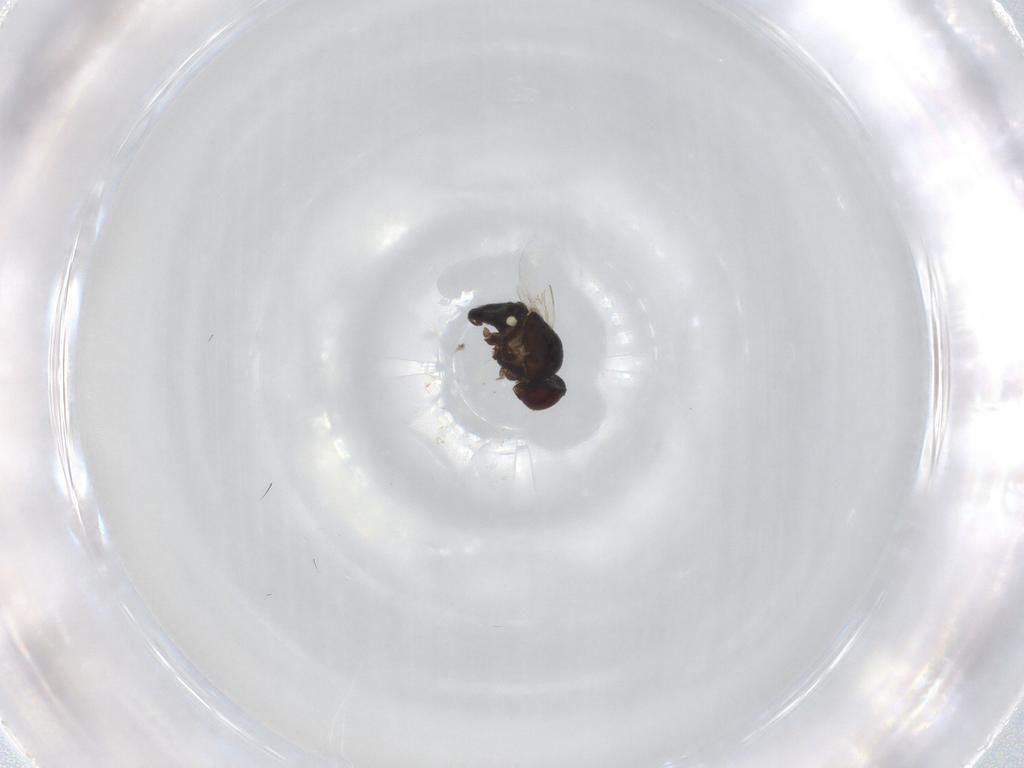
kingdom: Animalia
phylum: Arthropoda
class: Insecta
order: Diptera
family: Agromyzidae
